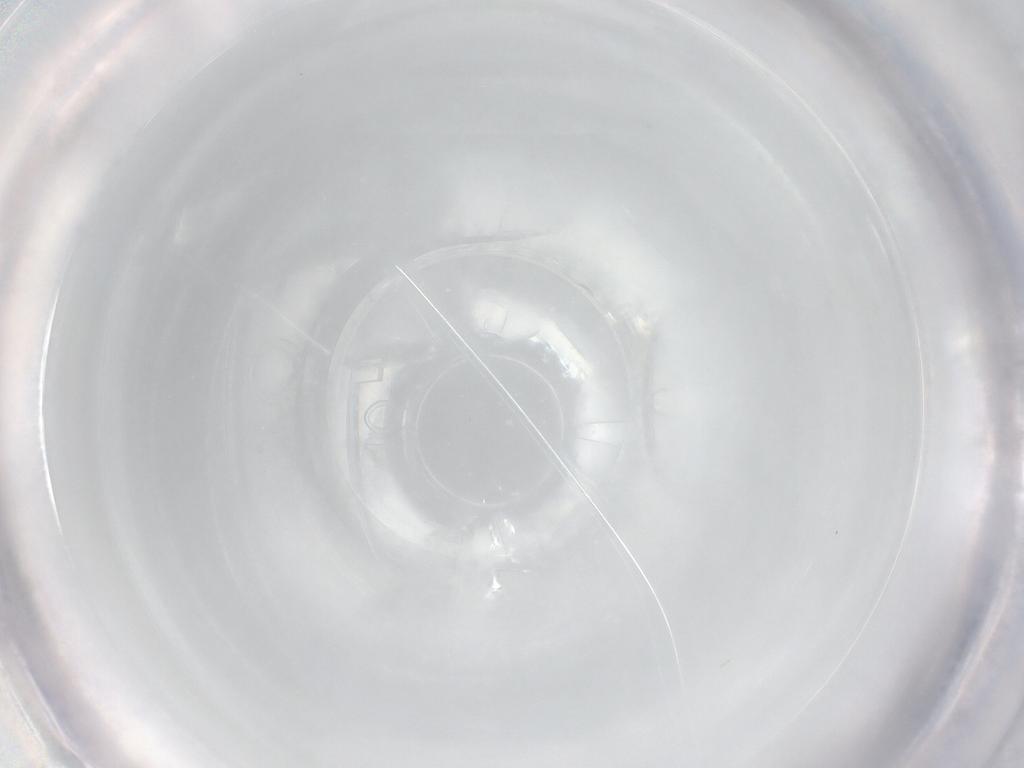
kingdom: Animalia
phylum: Arthropoda
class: Insecta
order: Diptera
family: Cecidomyiidae
